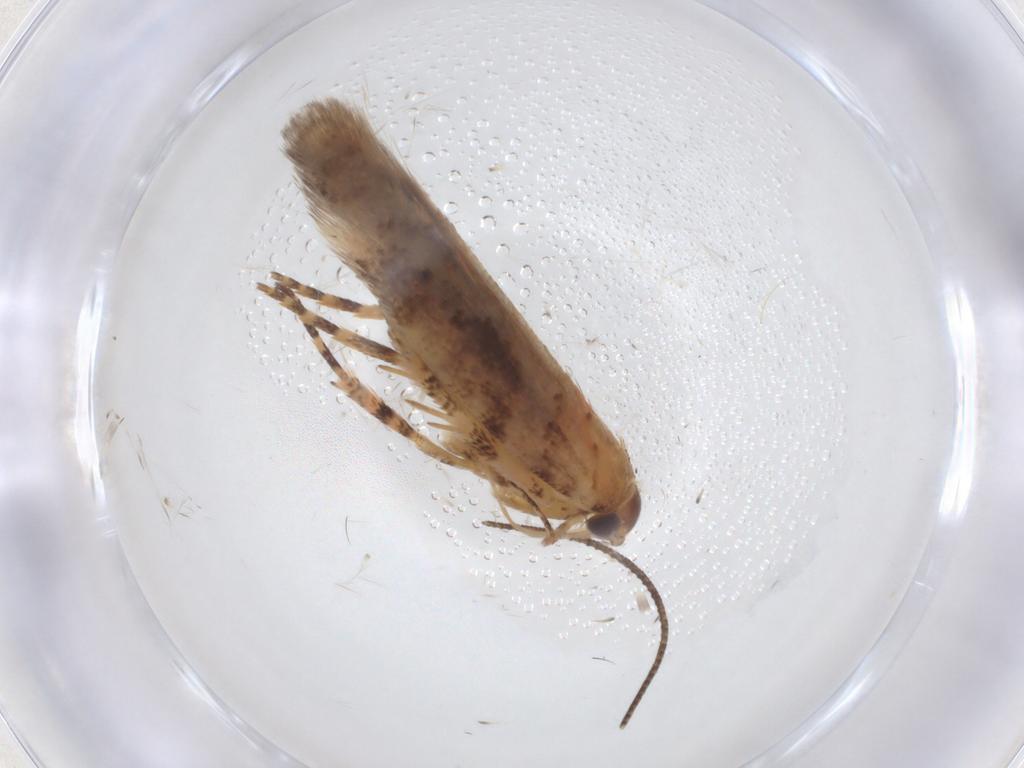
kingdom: Animalia
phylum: Arthropoda
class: Insecta
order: Lepidoptera
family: Gelechiidae
